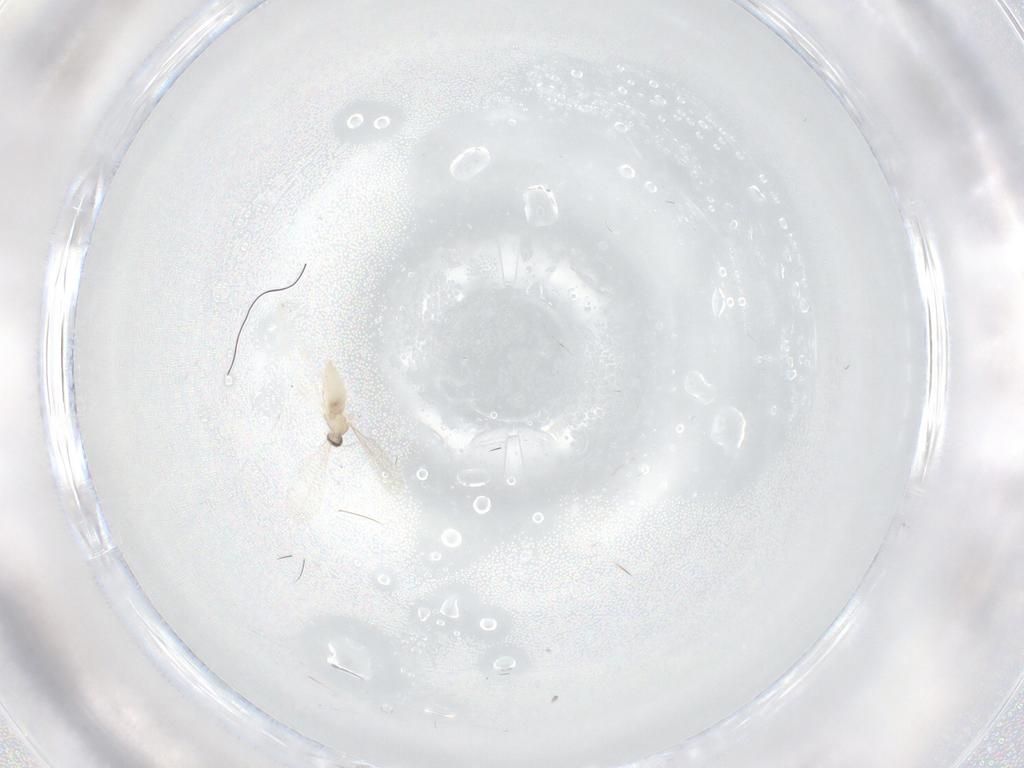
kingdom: Animalia
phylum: Arthropoda
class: Insecta
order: Diptera
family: Cecidomyiidae
